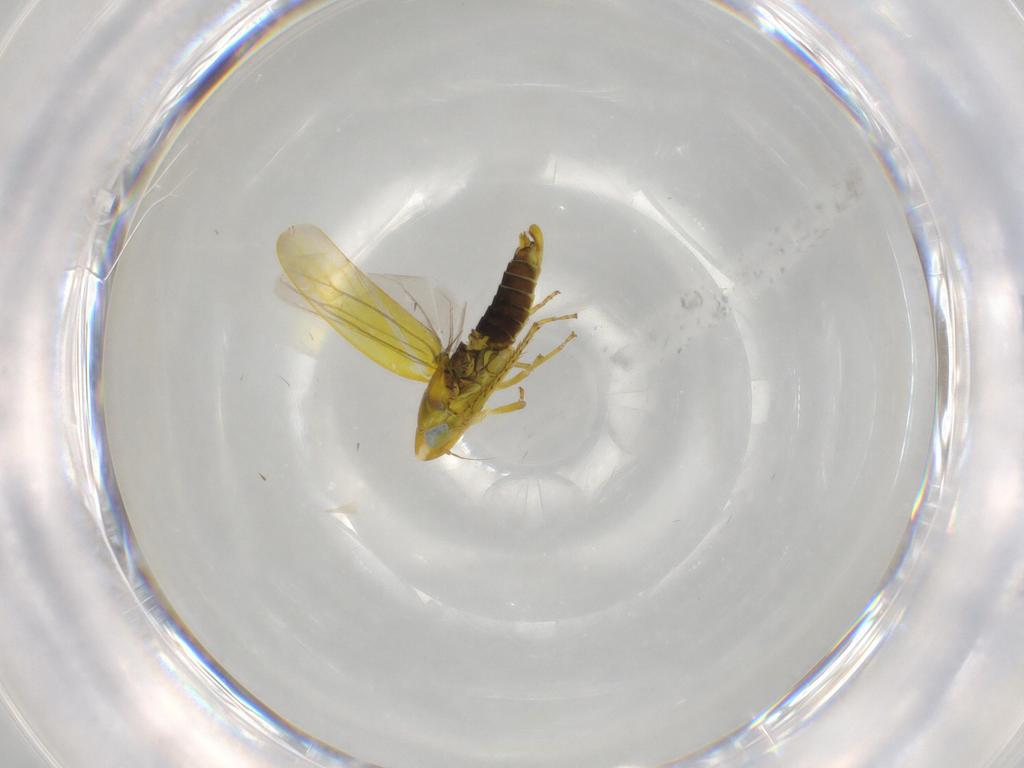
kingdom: Animalia
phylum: Arthropoda
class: Insecta
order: Hemiptera
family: Cicadellidae
